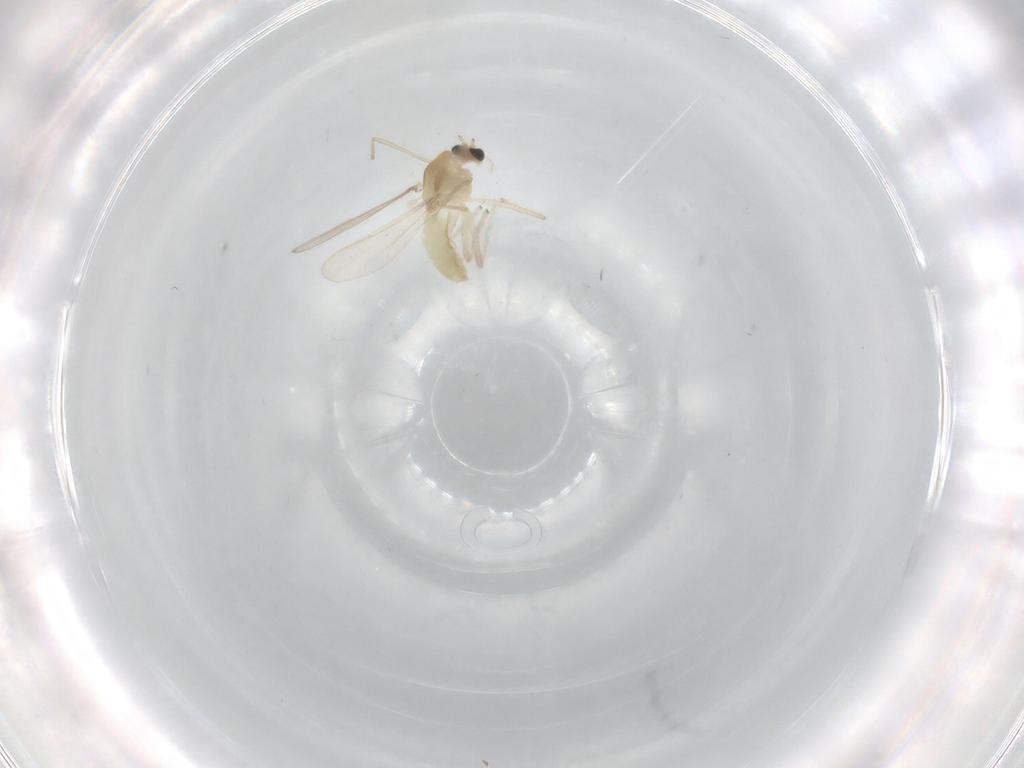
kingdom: Animalia
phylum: Arthropoda
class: Insecta
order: Diptera
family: Chironomidae
